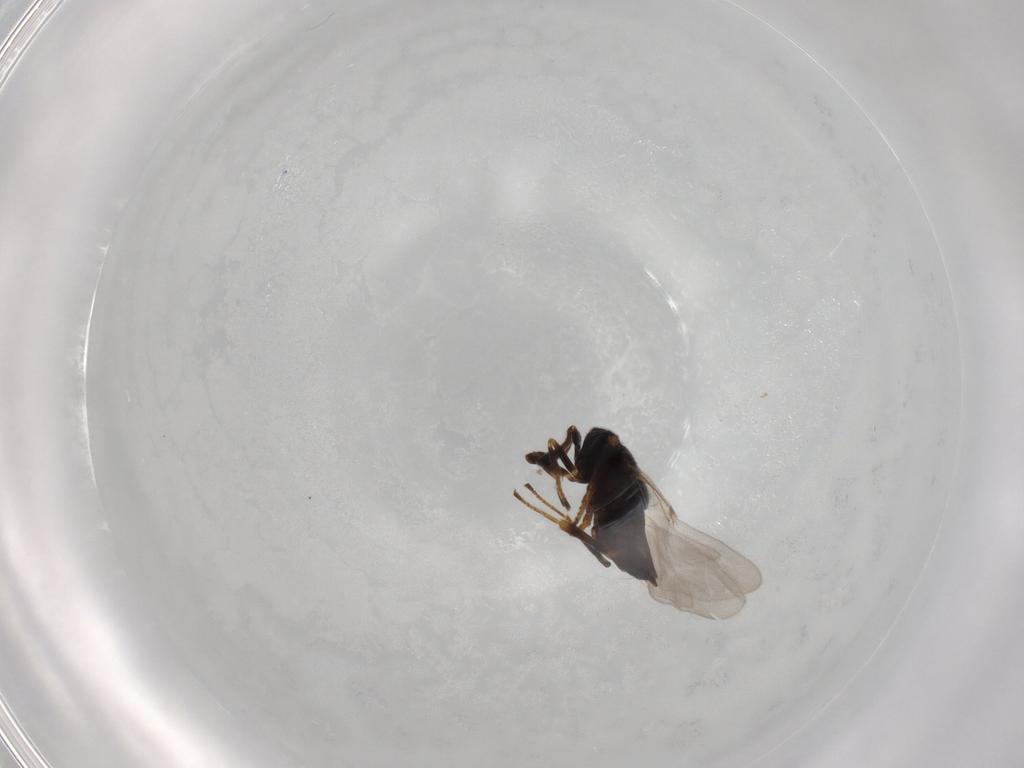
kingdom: Animalia
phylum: Arthropoda
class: Insecta
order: Hymenoptera
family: Ichneumonidae
